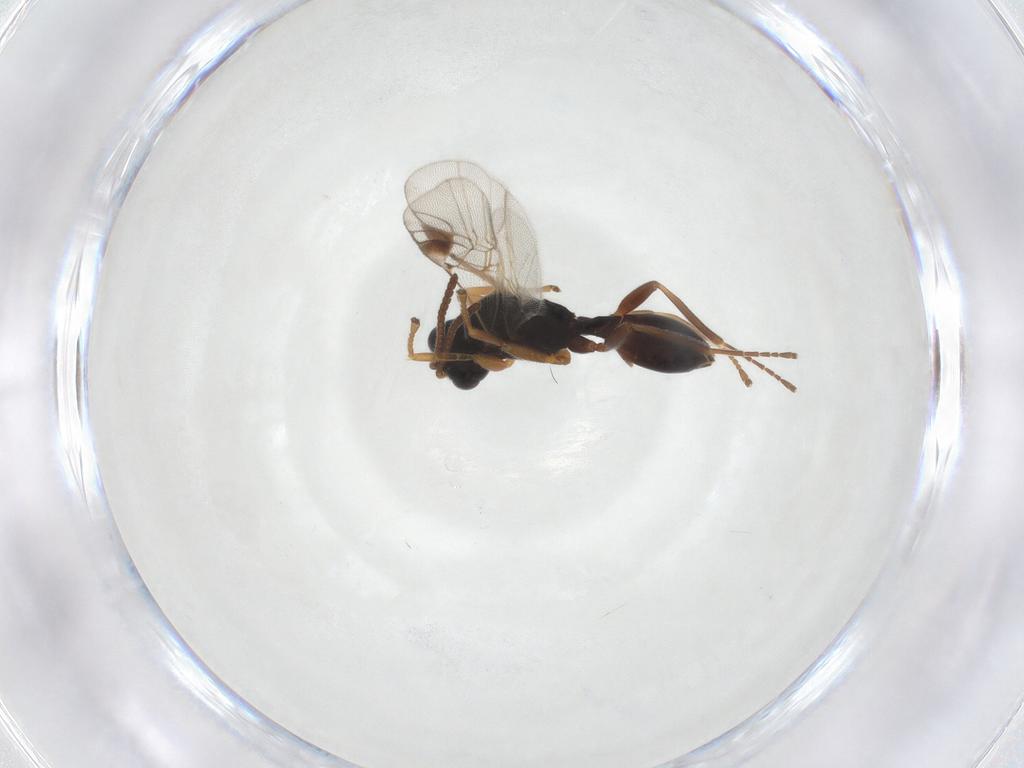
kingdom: Animalia
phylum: Arthropoda
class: Insecta
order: Hymenoptera
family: Braconidae
